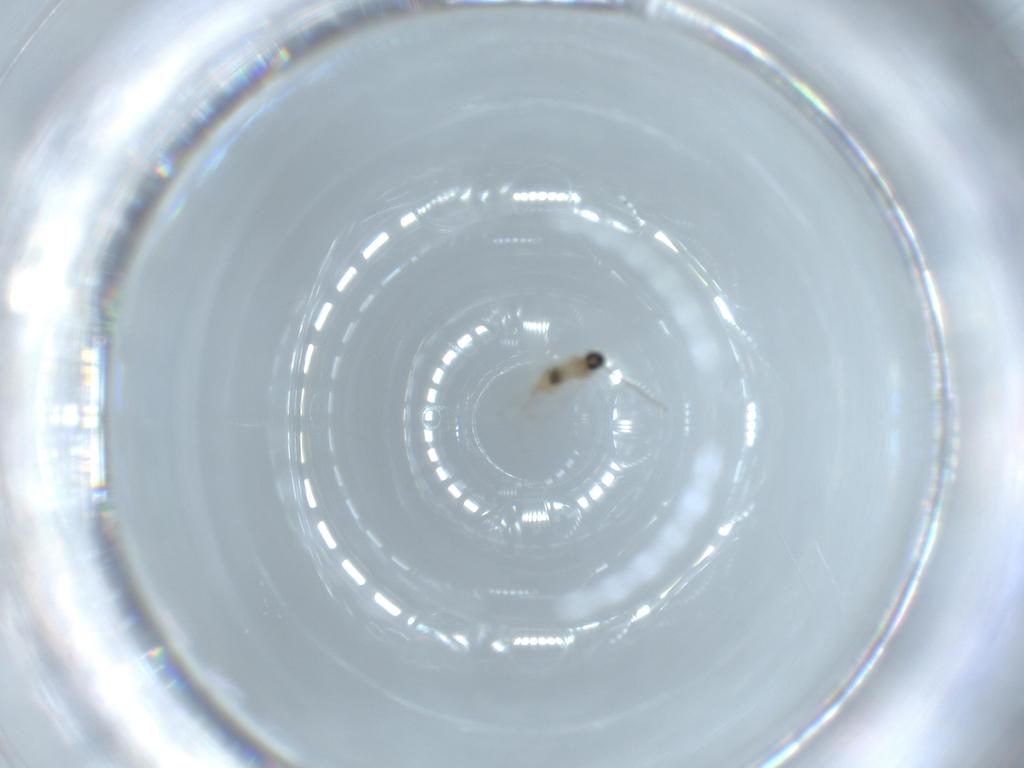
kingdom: Animalia
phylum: Arthropoda
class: Insecta
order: Diptera
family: Cecidomyiidae
